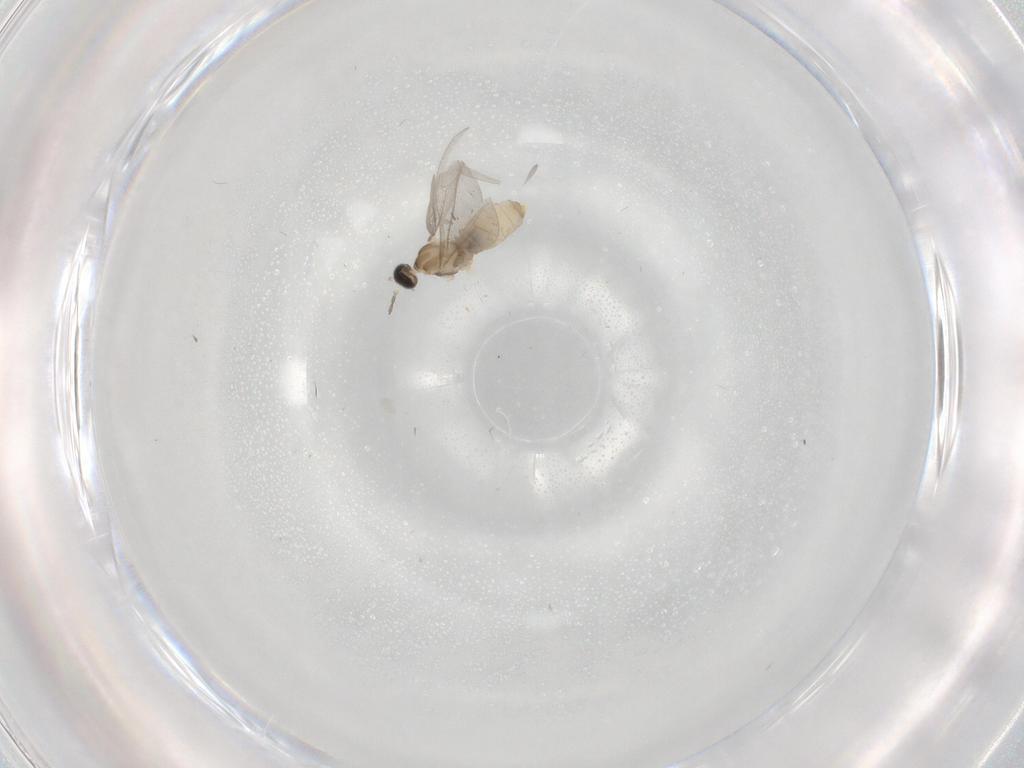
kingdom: Animalia
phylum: Arthropoda
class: Insecta
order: Diptera
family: Cecidomyiidae
